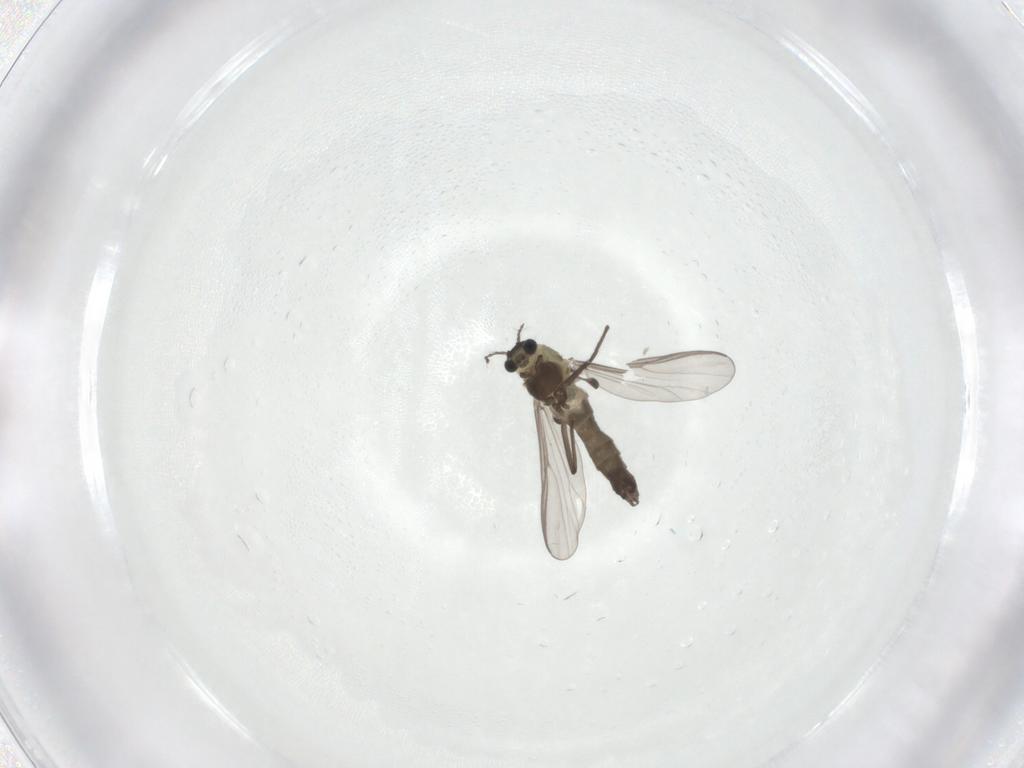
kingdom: Animalia
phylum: Arthropoda
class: Insecta
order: Diptera
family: Chironomidae
